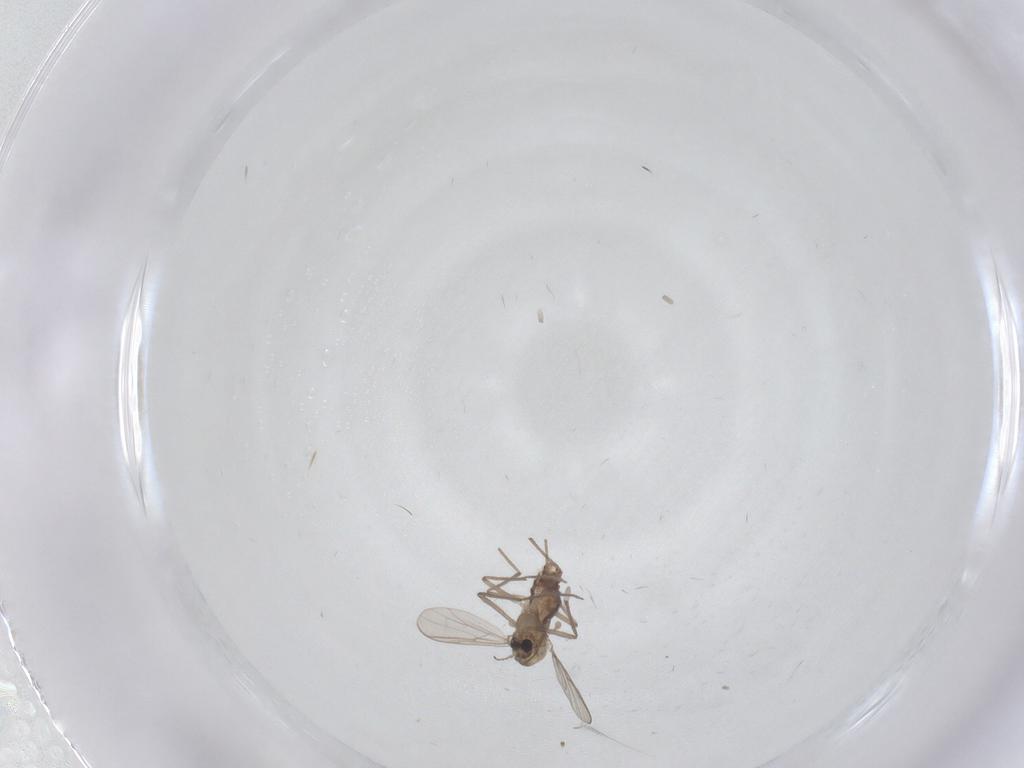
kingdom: Animalia
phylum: Arthropoda
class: Insecta
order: Diptera
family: Chironomidae
